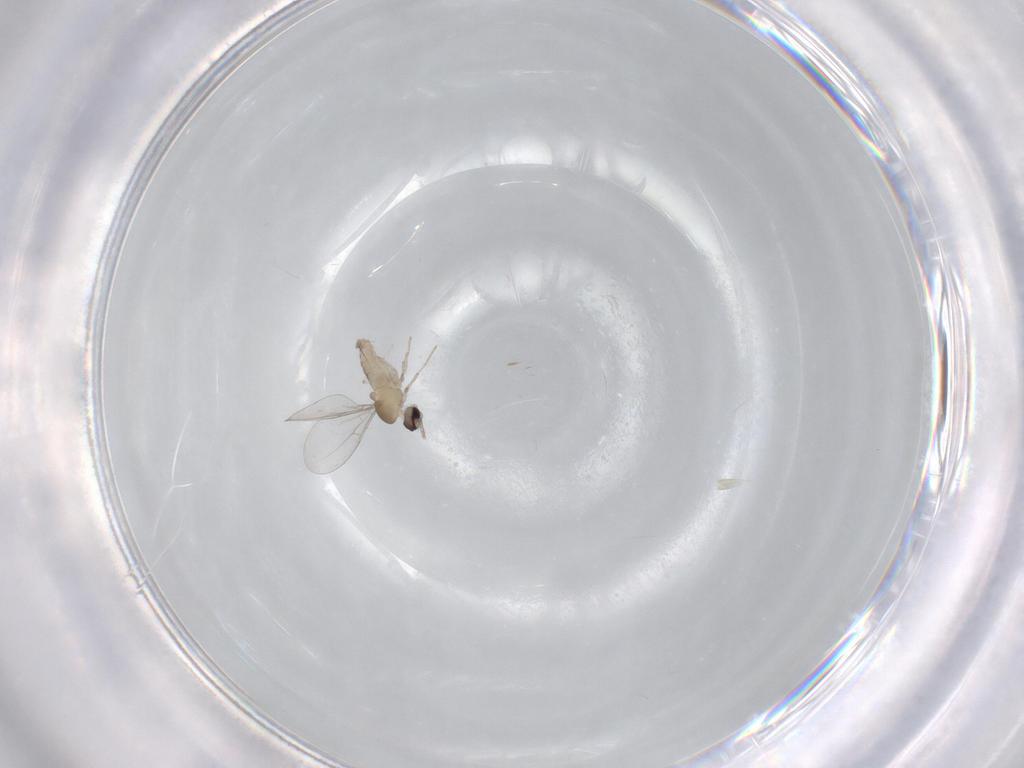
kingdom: Animalia
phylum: Arthropoda
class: Insecta
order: Diptera
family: Cecidomyiidae
